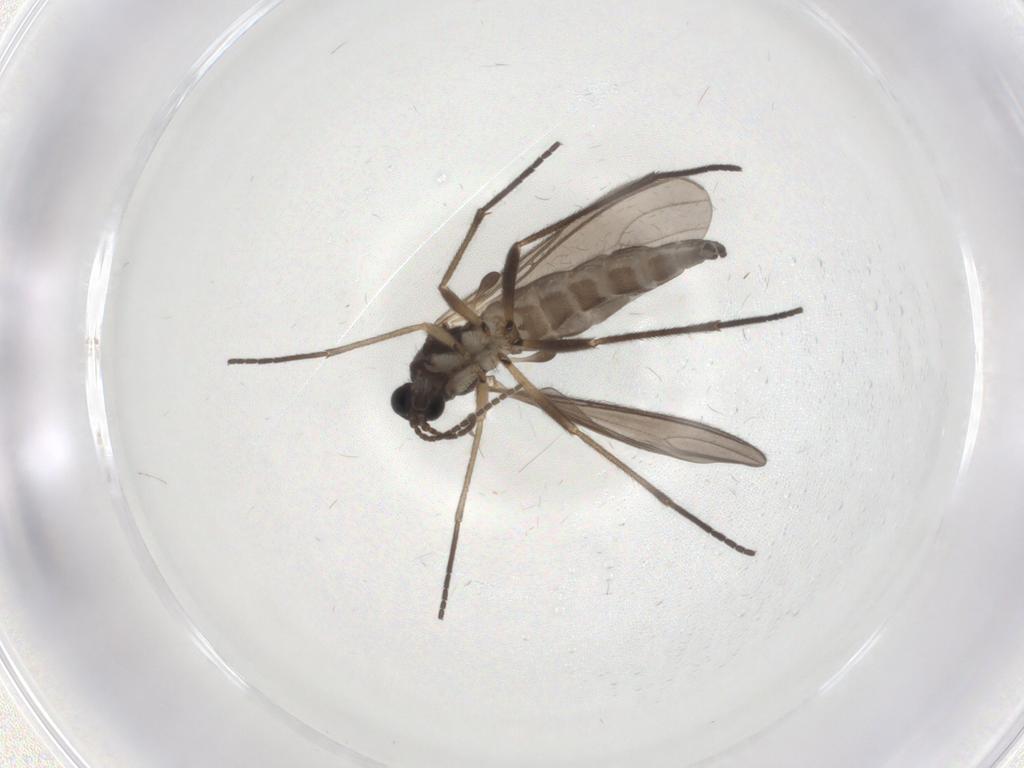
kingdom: Animalia
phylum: Arthropoda
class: Insecta
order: Diptera
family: Sciaridae
